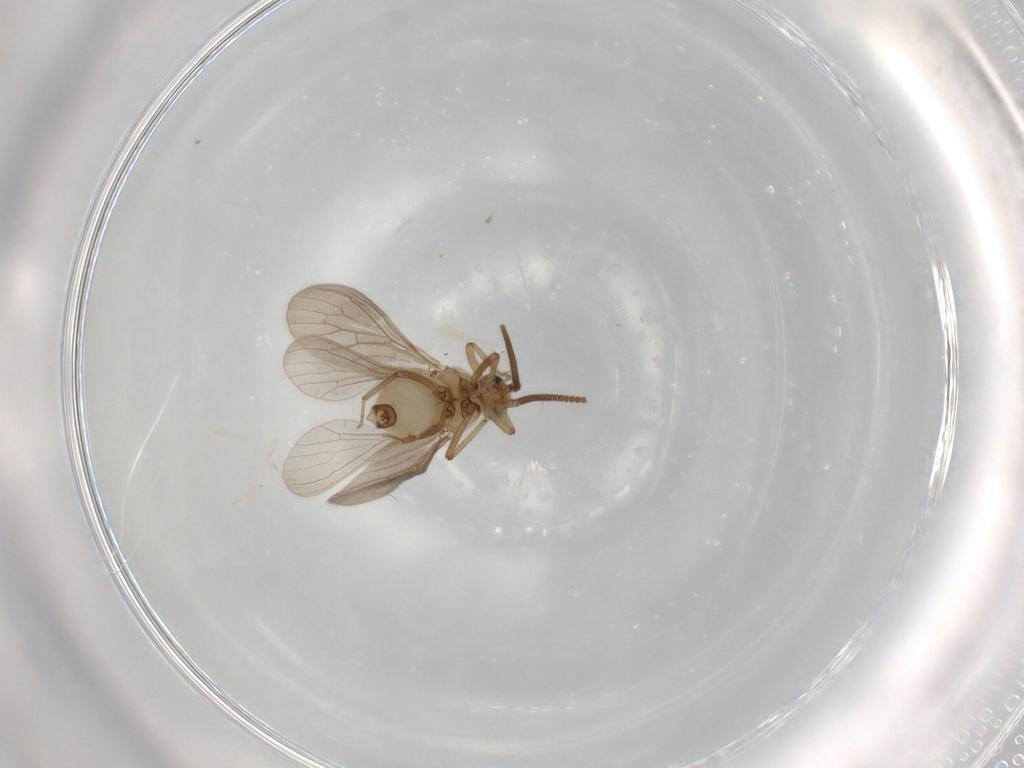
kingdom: Animalia
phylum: Arthropoda
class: Insecta
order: Neuroptera
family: Coniopterygidae
